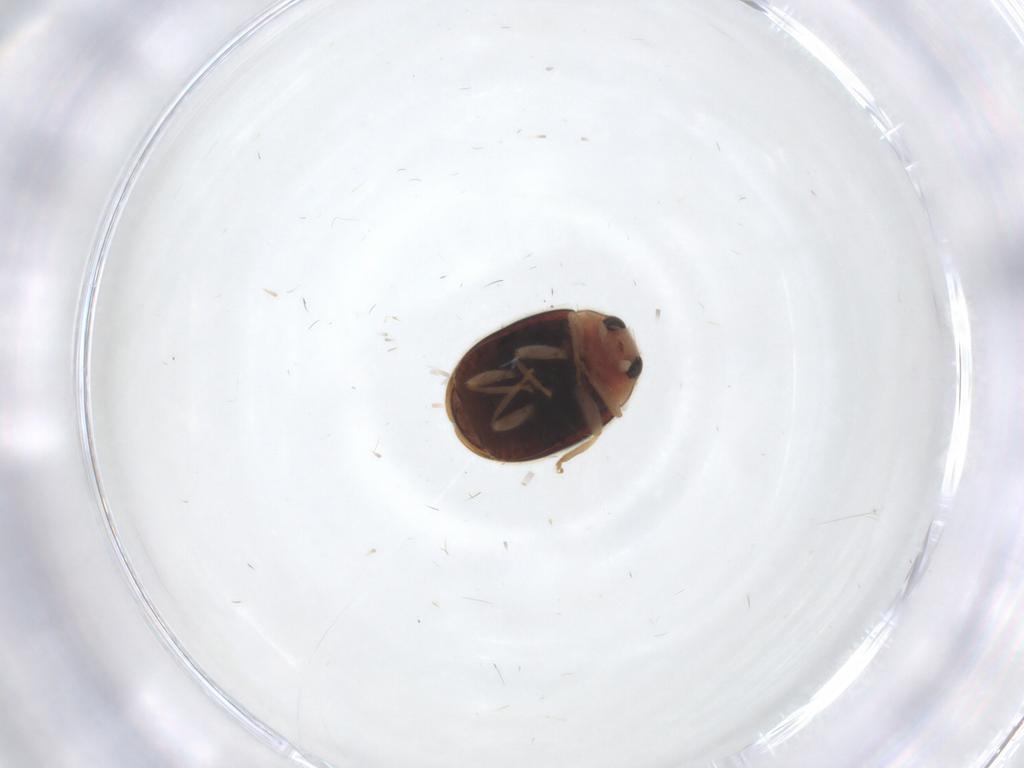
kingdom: Animalia
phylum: Arthropoda
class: Insecta
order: Coleoptera
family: Coccinellidae
